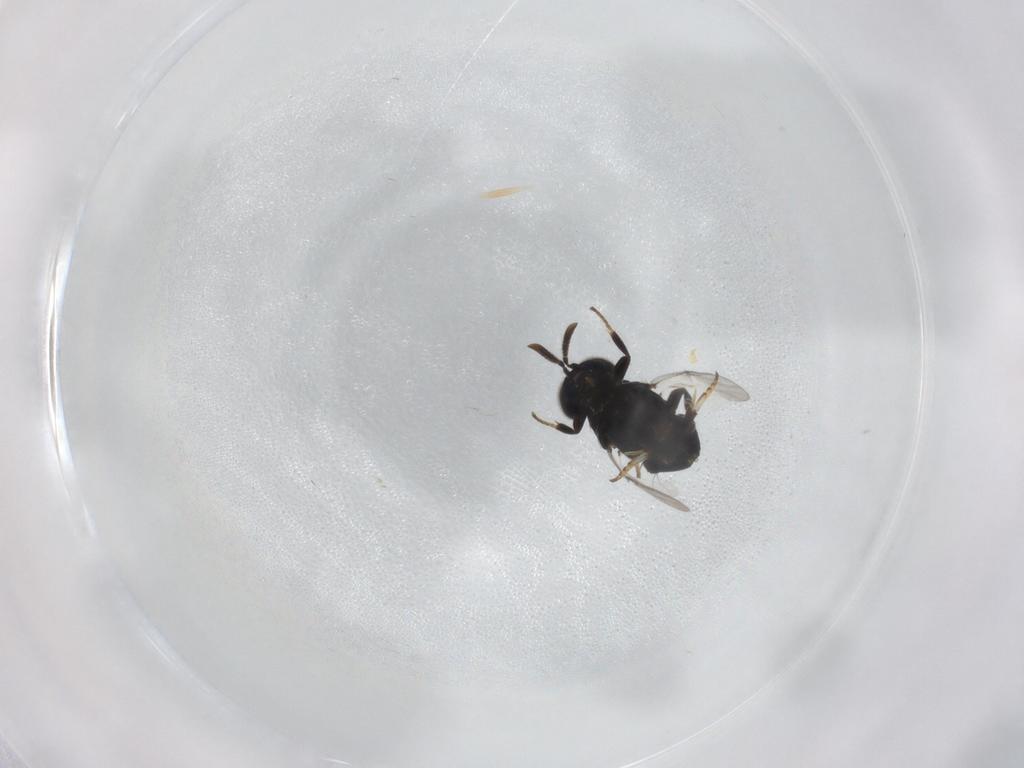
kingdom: Animalia
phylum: Arthropoda
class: Insecta
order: Hymenoptera
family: Encyrtidae
